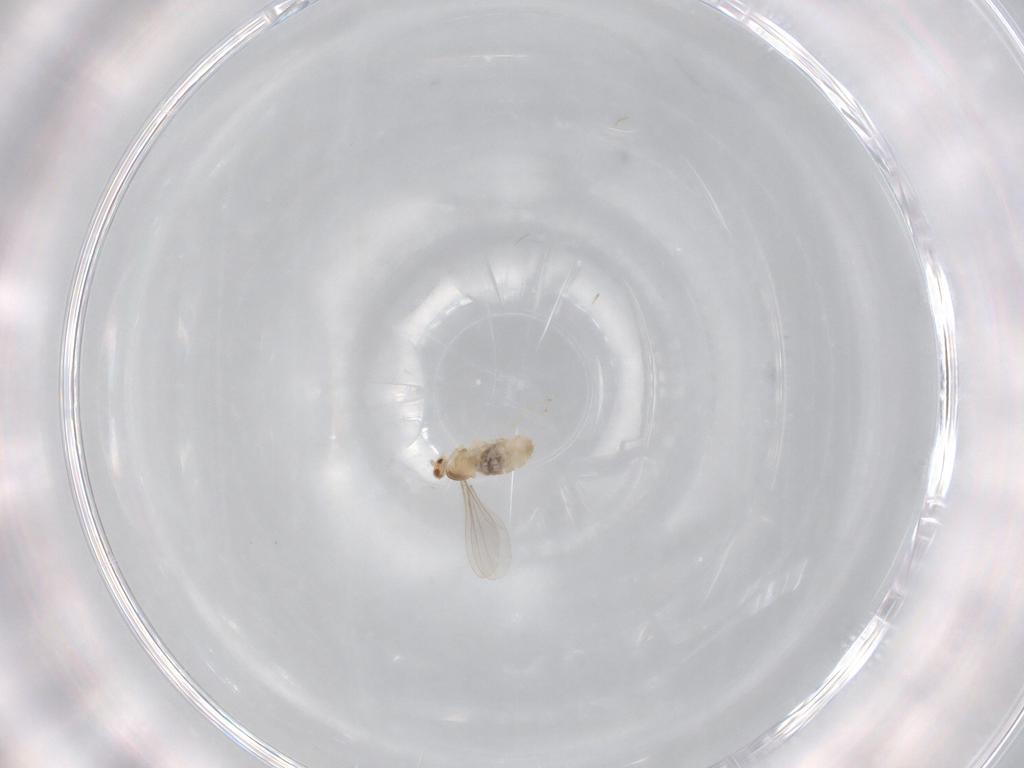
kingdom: Animalia
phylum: Arthropoda
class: Insecta
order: Diptera
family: Cecidomyiidae
